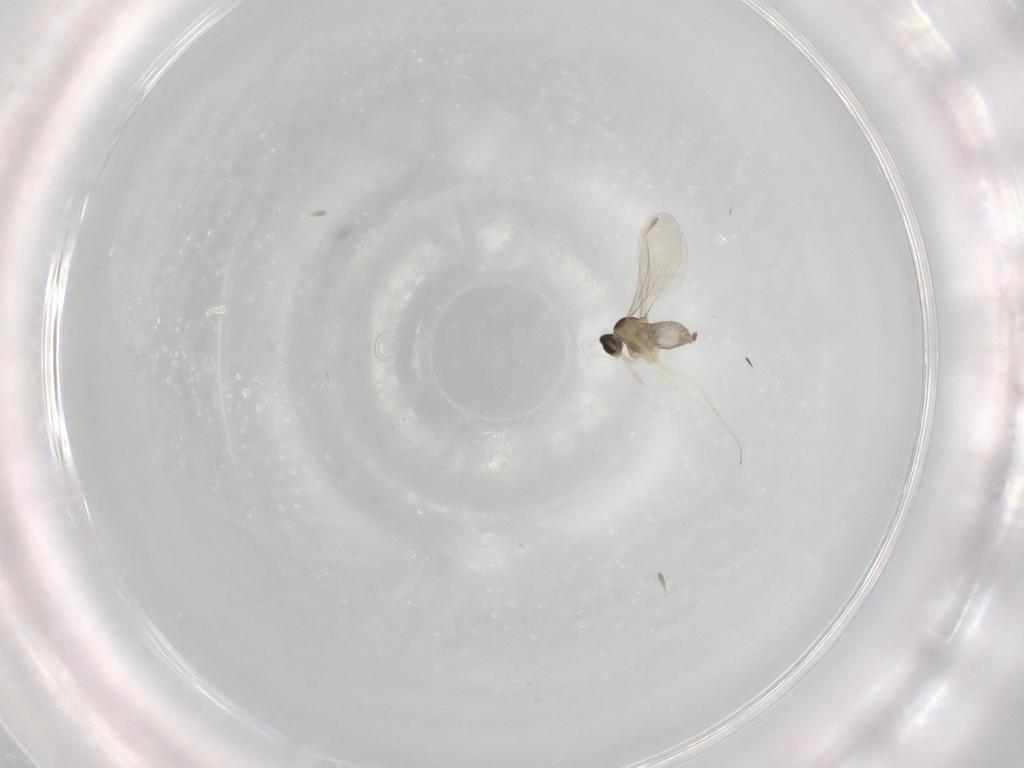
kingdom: Animalia
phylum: Arthropoda
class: Insecta
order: Diptera
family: Cecidomyiidae
